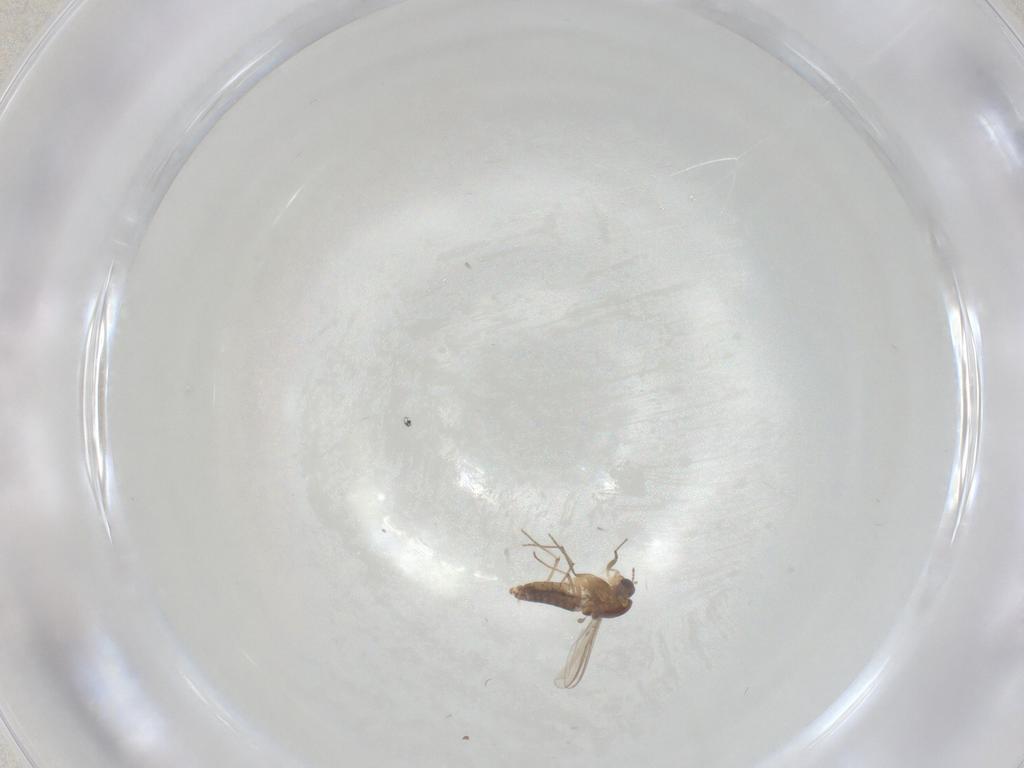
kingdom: Animalia
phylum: Arthropoda
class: Insecta
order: Diptera
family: Chironomidae
